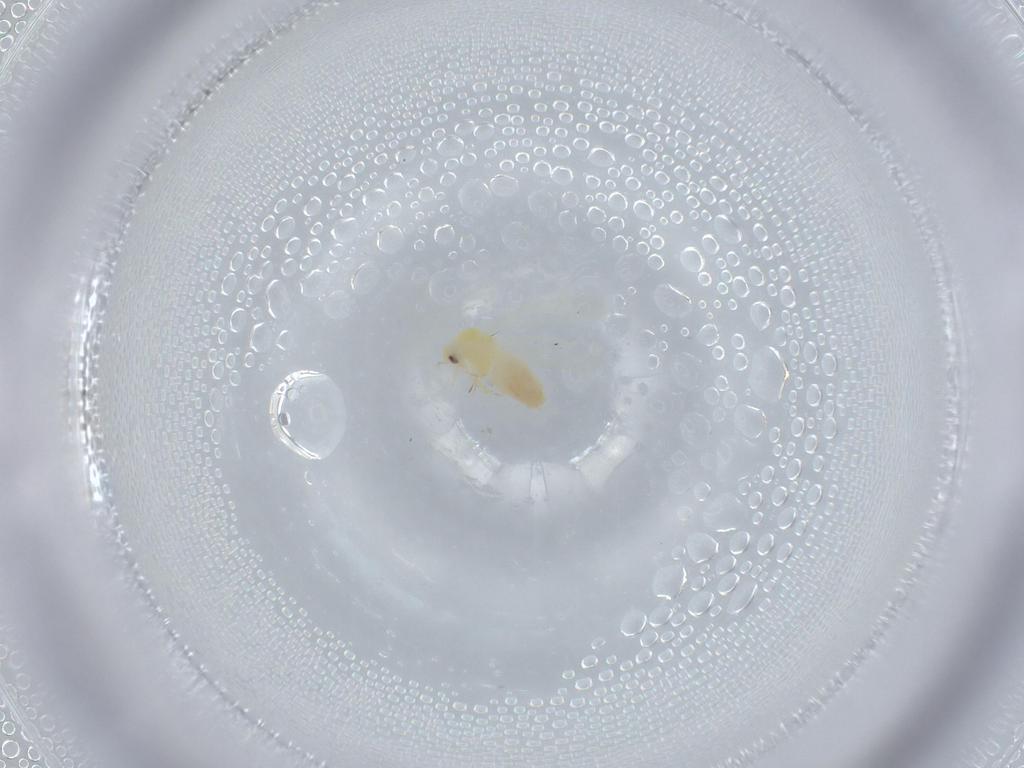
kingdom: Animalia
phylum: Arthropoda
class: Insecta
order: Hemiptera
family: Aleyrodidae
